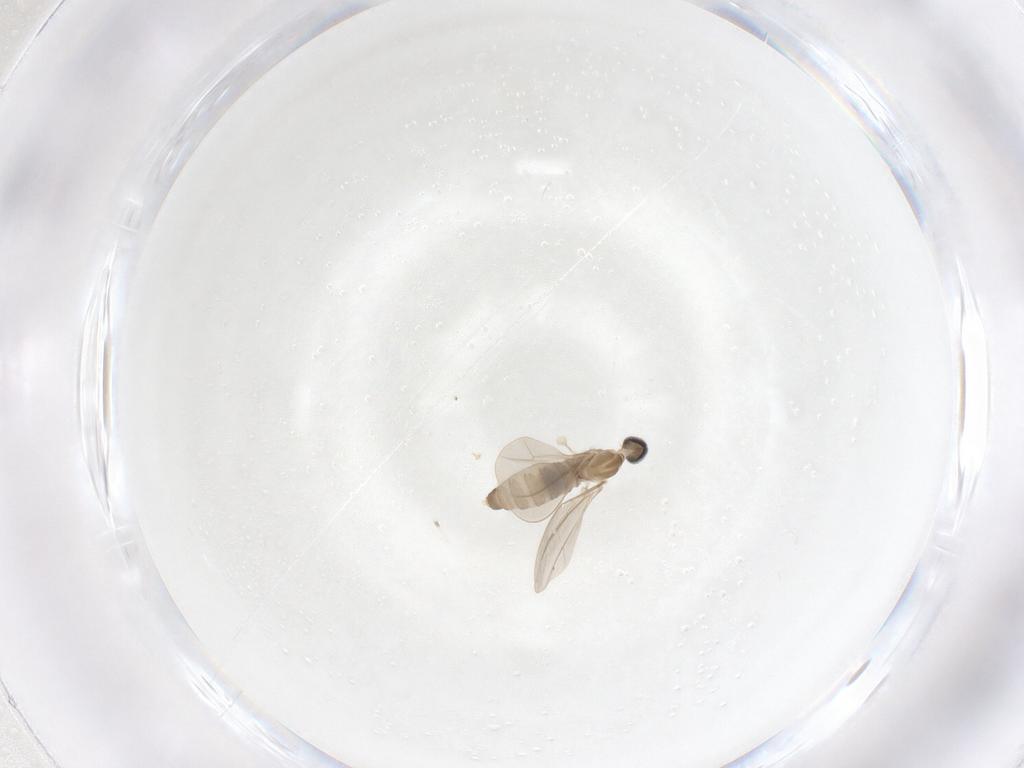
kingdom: Animalia
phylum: Arthropoda
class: Insecta
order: Diptera
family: Cecidomyiidae
